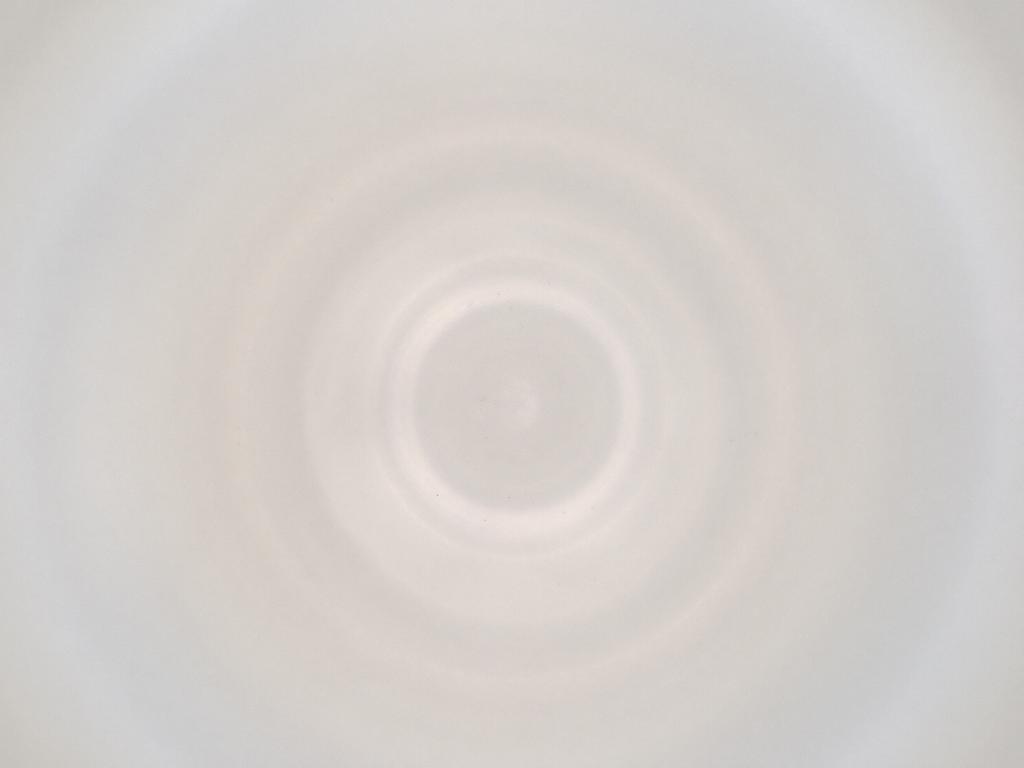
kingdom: Animalia
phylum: Arthropoda
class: Insecta
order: Diptera
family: Cecidomyiidae
